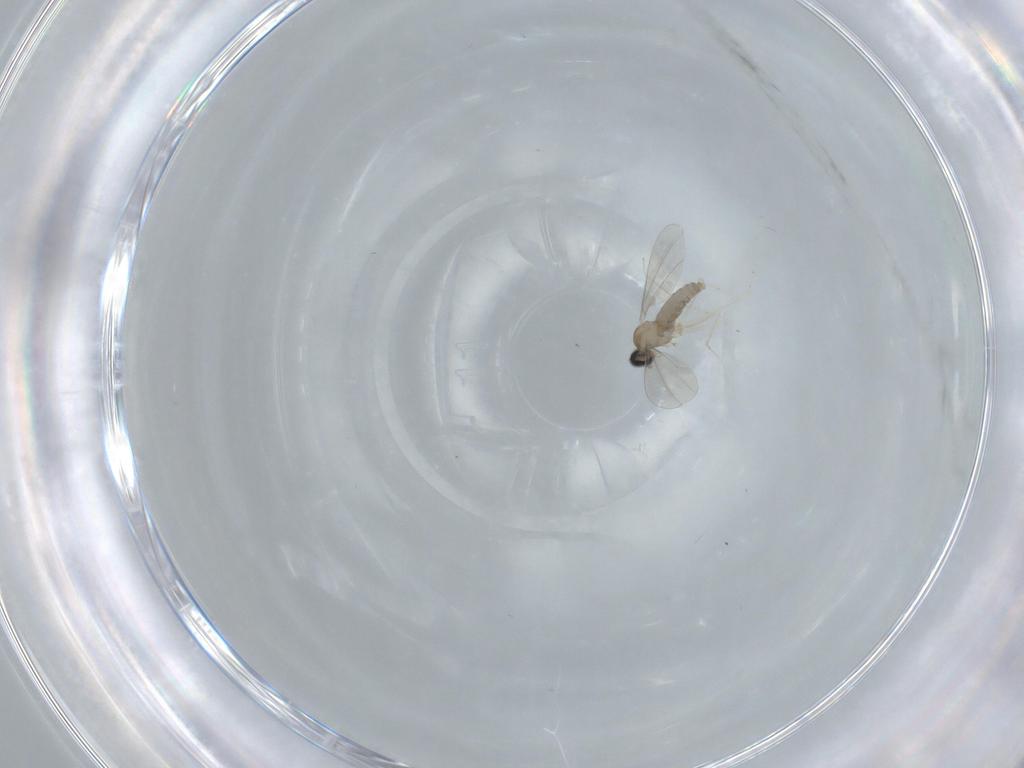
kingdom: Animalia
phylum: Arthropoda
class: Insecta
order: Diptera
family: Cecidomyiidae
